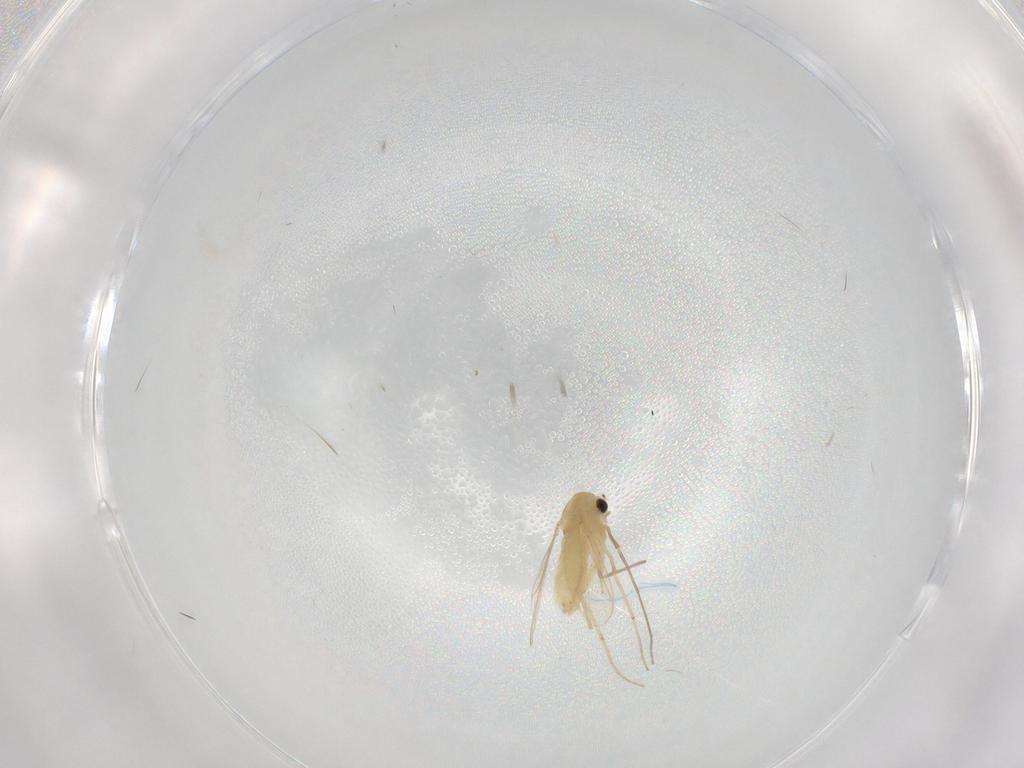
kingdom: Animalia
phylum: Arthropoda
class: Insecta
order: Diptera
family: Chironomidae
